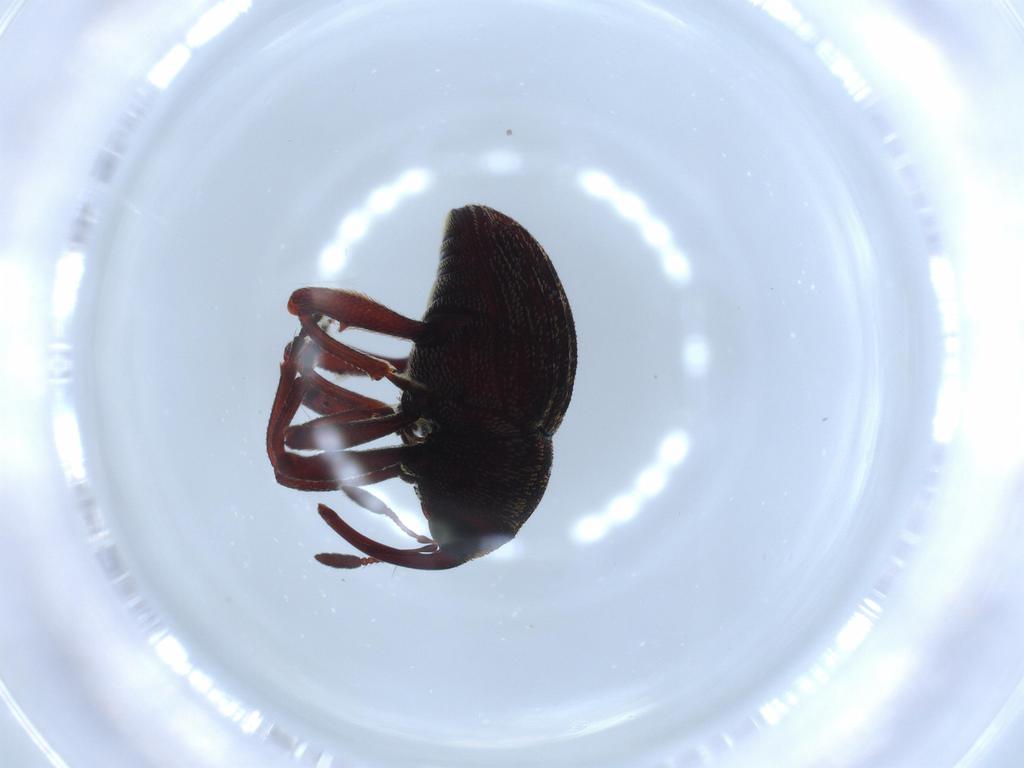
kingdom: Animalia
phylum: Arthropoda
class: Insecta
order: Coleoptera
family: Curculionidae
